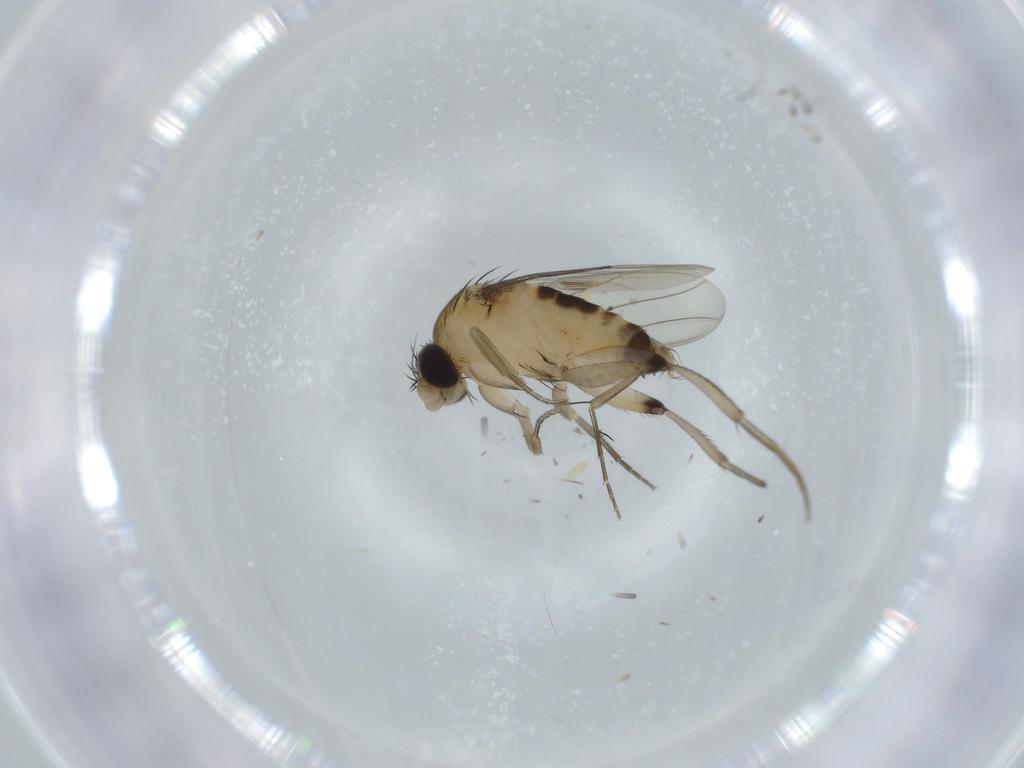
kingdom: Animalia
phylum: Arthropoda
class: Insecta
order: Diptera
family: Phoridae
